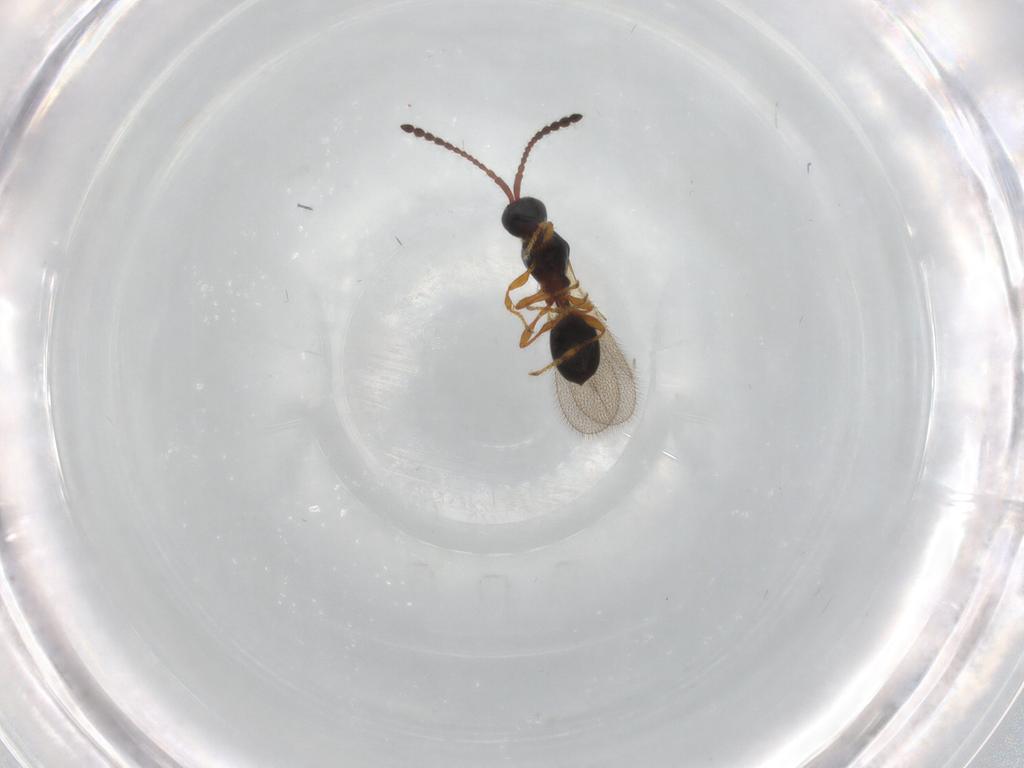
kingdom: Animalia
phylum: Arthropoda
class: Insecta
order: Hymenoptera
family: Diapriidae
